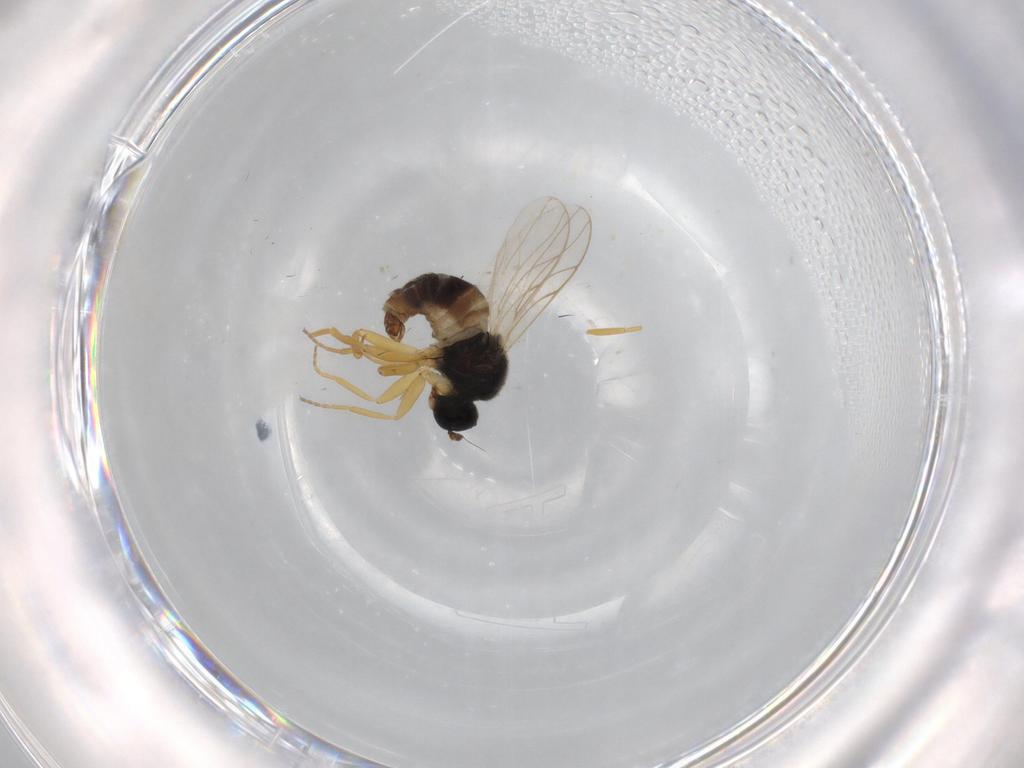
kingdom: Animalia
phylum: Arthropoda
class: Insecta
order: Diptera
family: Hybotidae
